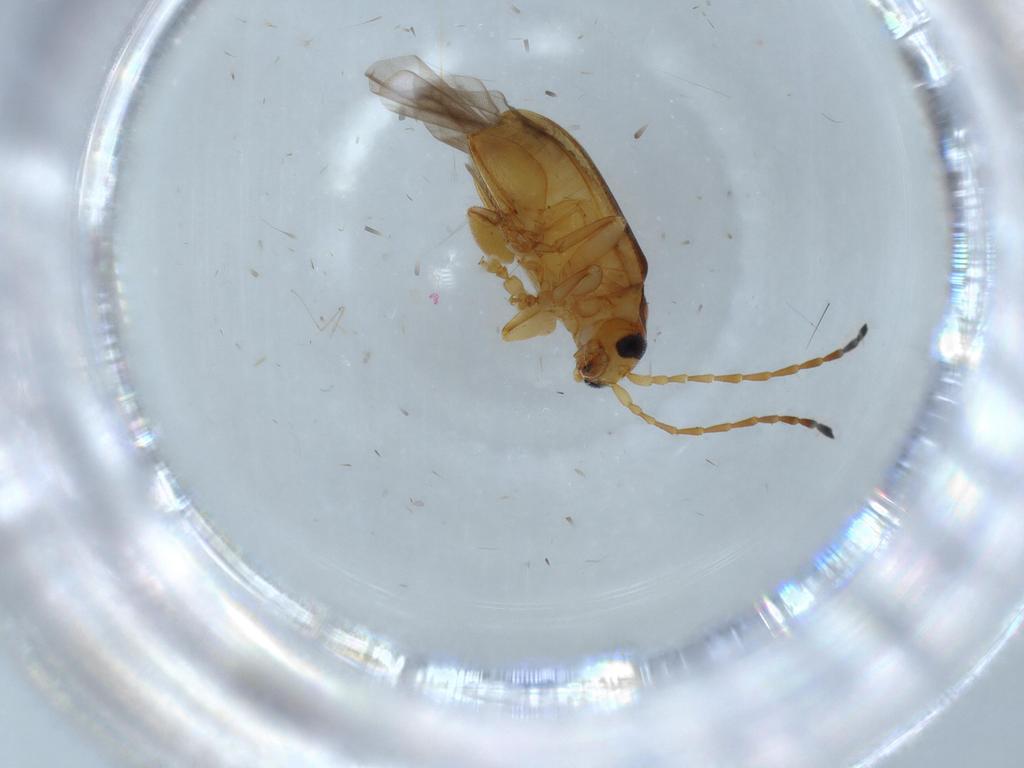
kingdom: Animalia
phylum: Arthropoda
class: Insecta
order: Coleoptera
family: Chrysomelidae
